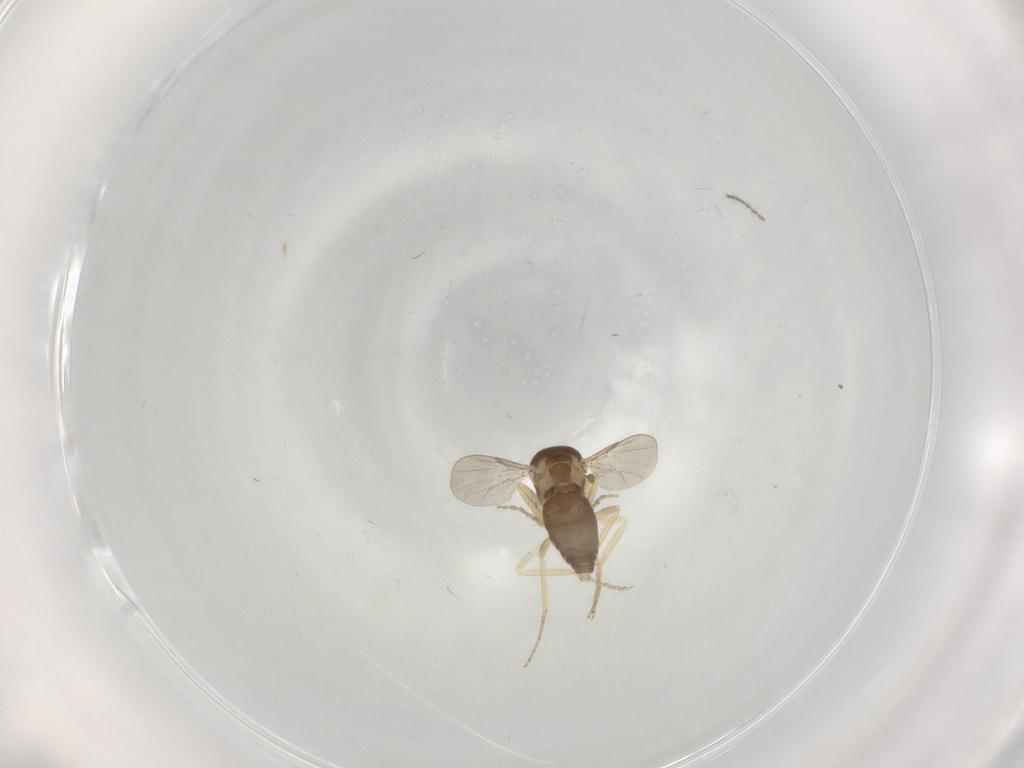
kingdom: Animalia
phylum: Arthropoda
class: Insecta
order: Diptera
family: Ceratopogonidae
